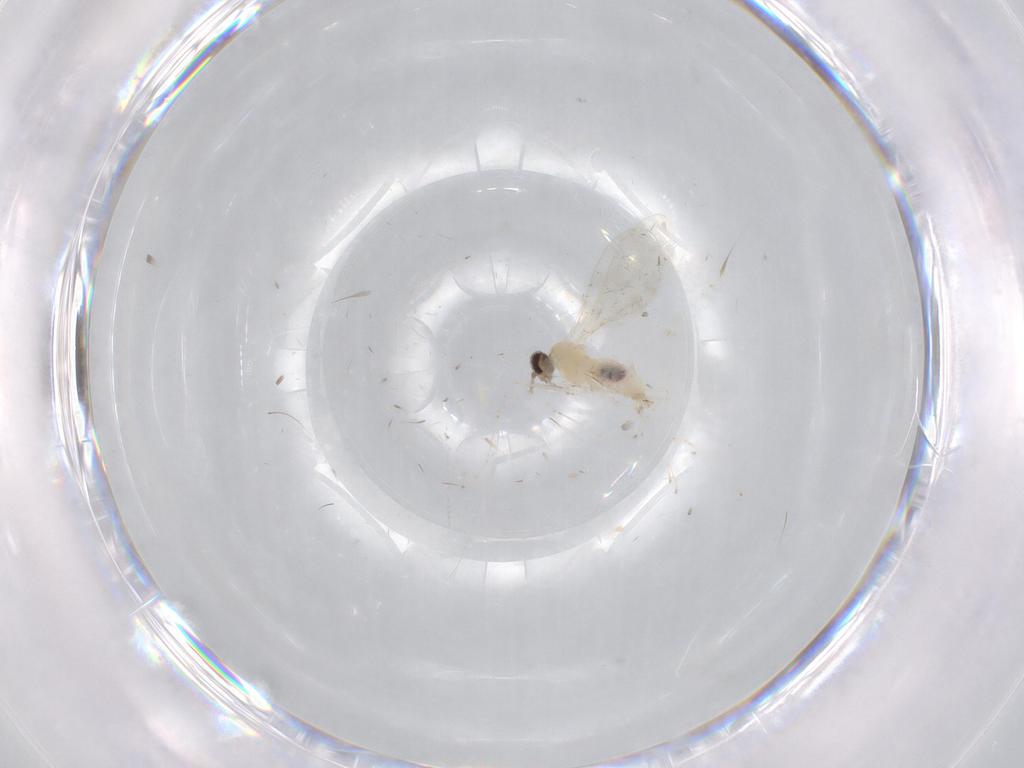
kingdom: Animalia
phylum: Arthropoda
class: Insecta
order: Diptera
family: Cecidomyiidae
